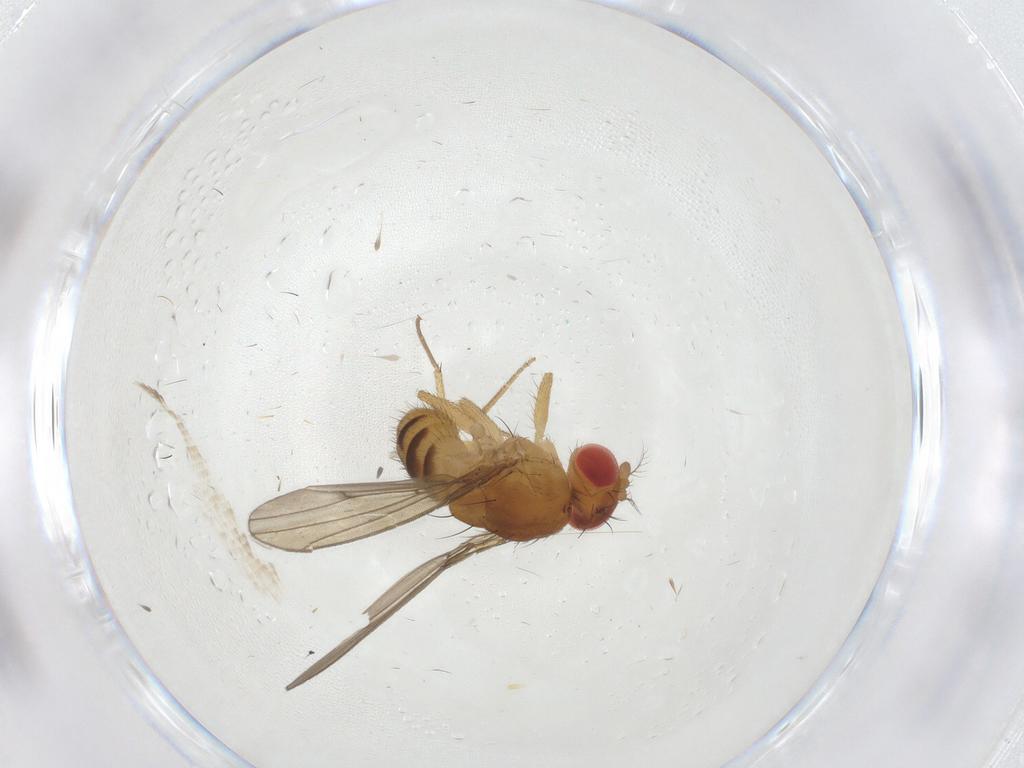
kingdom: Animalia
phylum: Arthropoda
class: Insecta
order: Diptera
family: Drosophilidae
